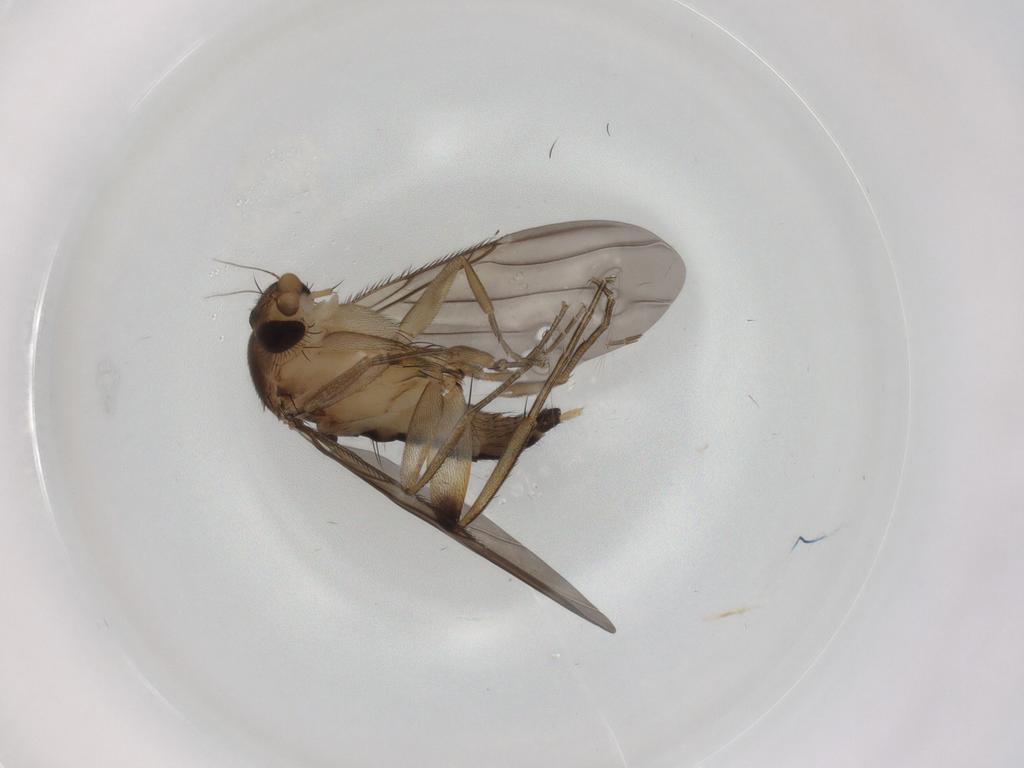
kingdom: Animalia
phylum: Arthropoda
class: Insecta
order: Diptera
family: Phoridae
